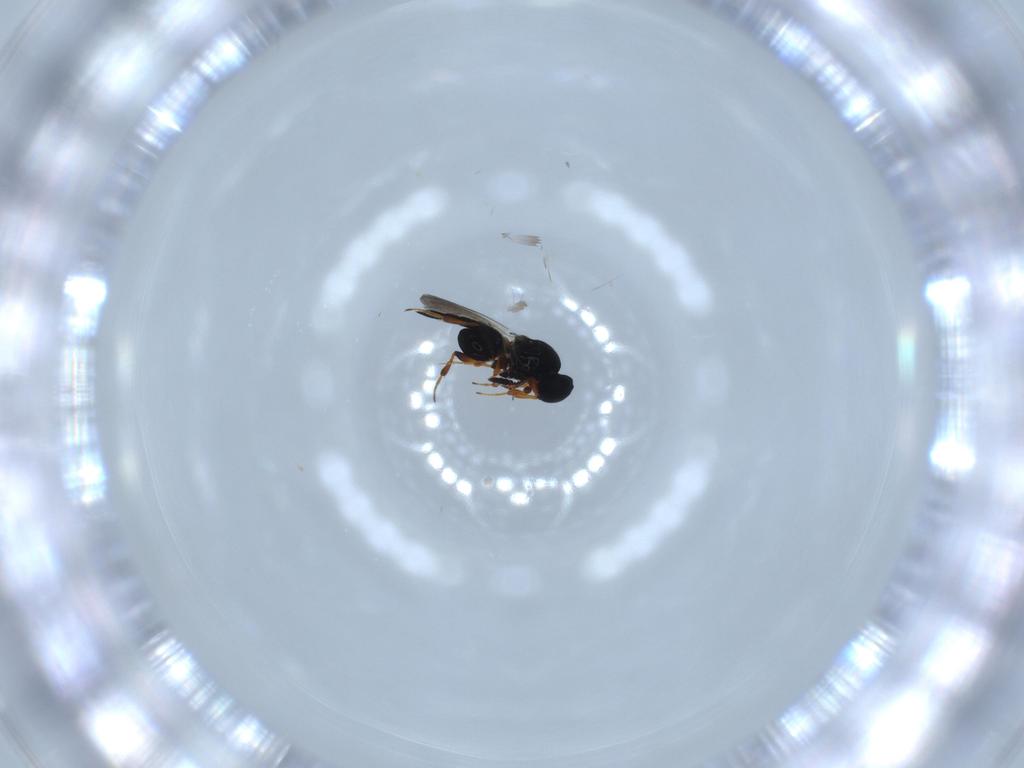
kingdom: Animalia
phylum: Arthropoda
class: Insecta
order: Hymenoptera
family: Platygastridae
